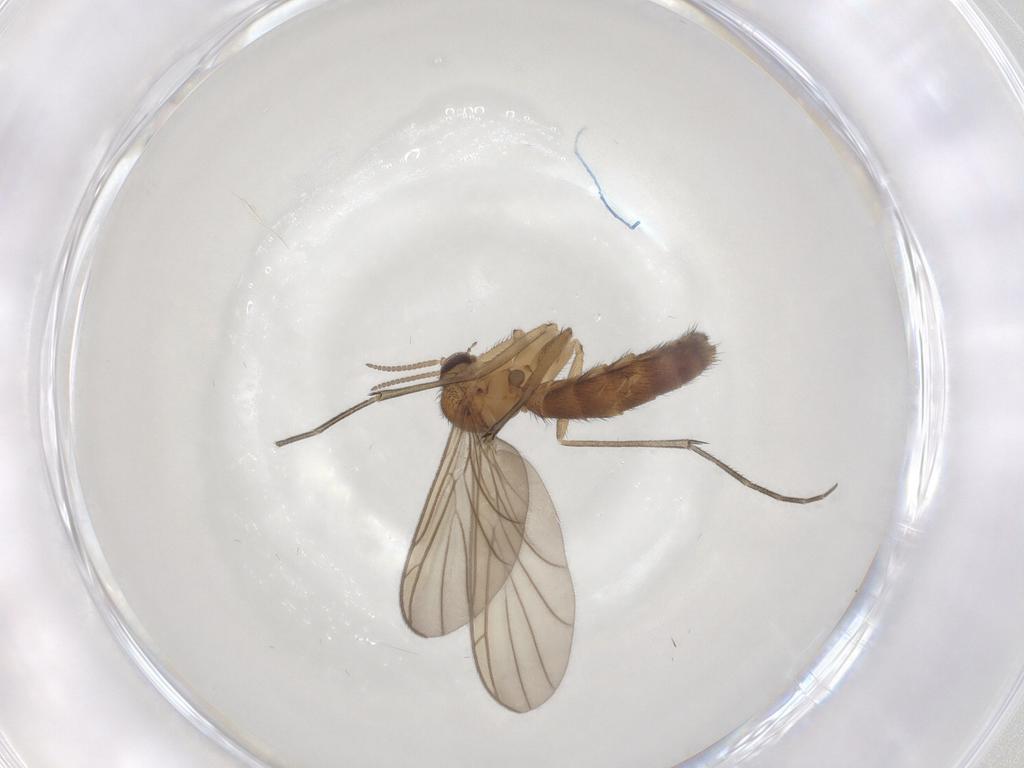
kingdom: Animalia
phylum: Arthropoda
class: Insecta
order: Diptera
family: Keroplatidae
